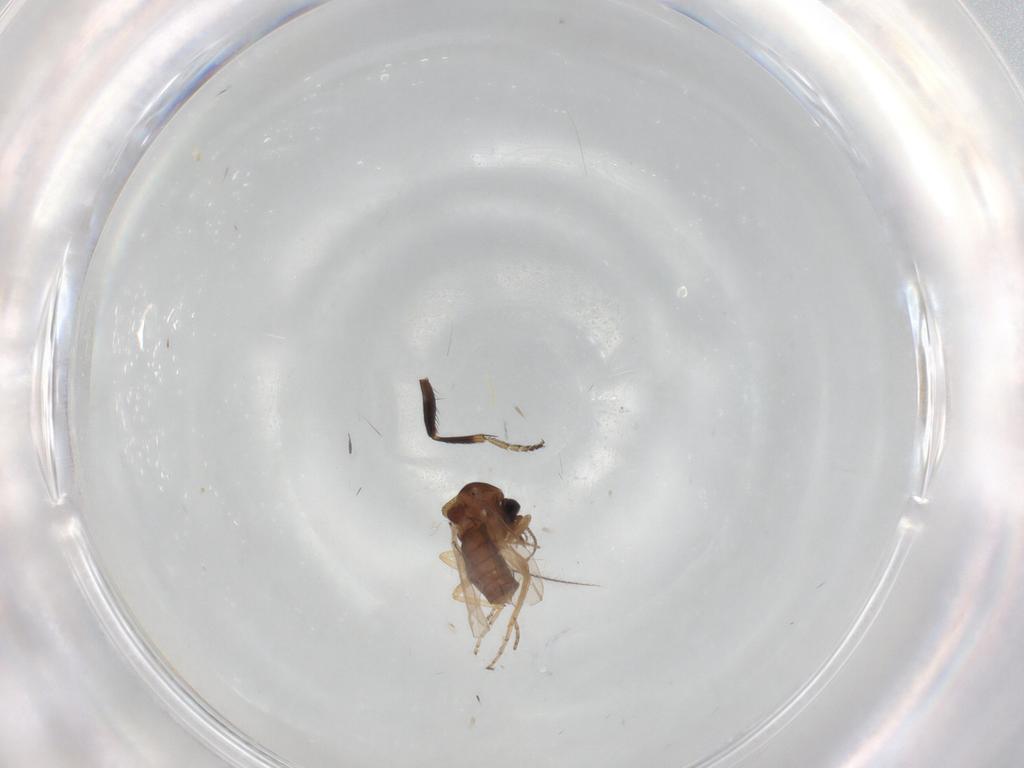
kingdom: Animalia
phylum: Arthropoda
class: Insecta
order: Diptera
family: Ceratopogonidae
